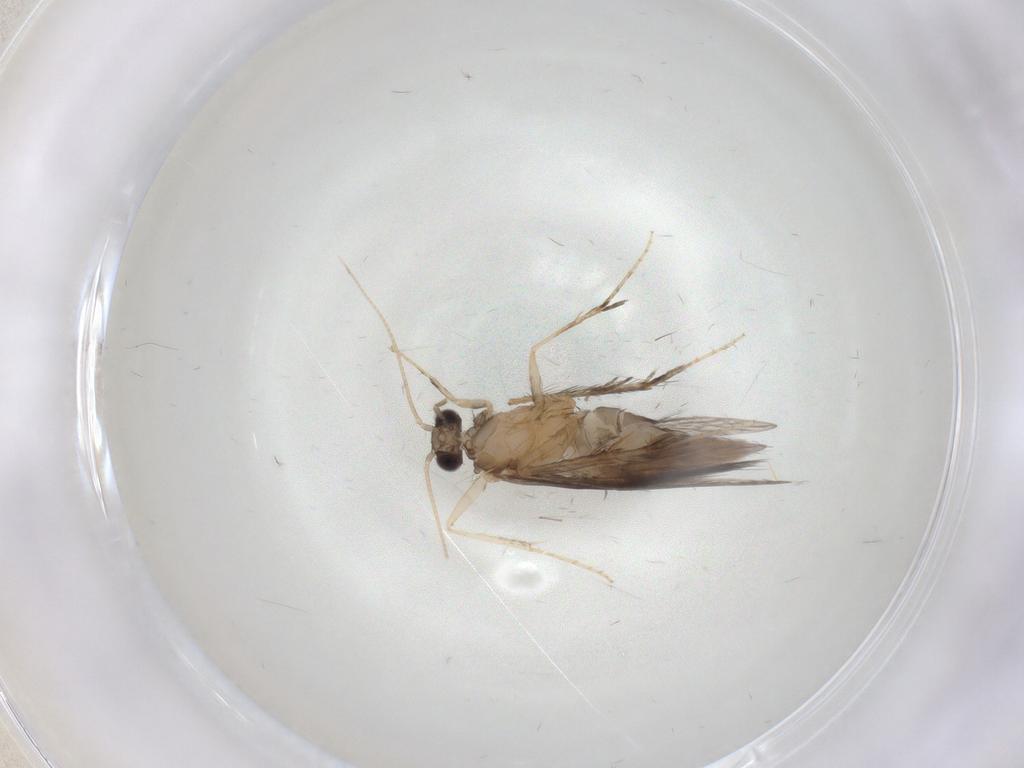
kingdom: Animalia
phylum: Arthropoda
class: Insecta
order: Trichoptera
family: Hydroptilidae
